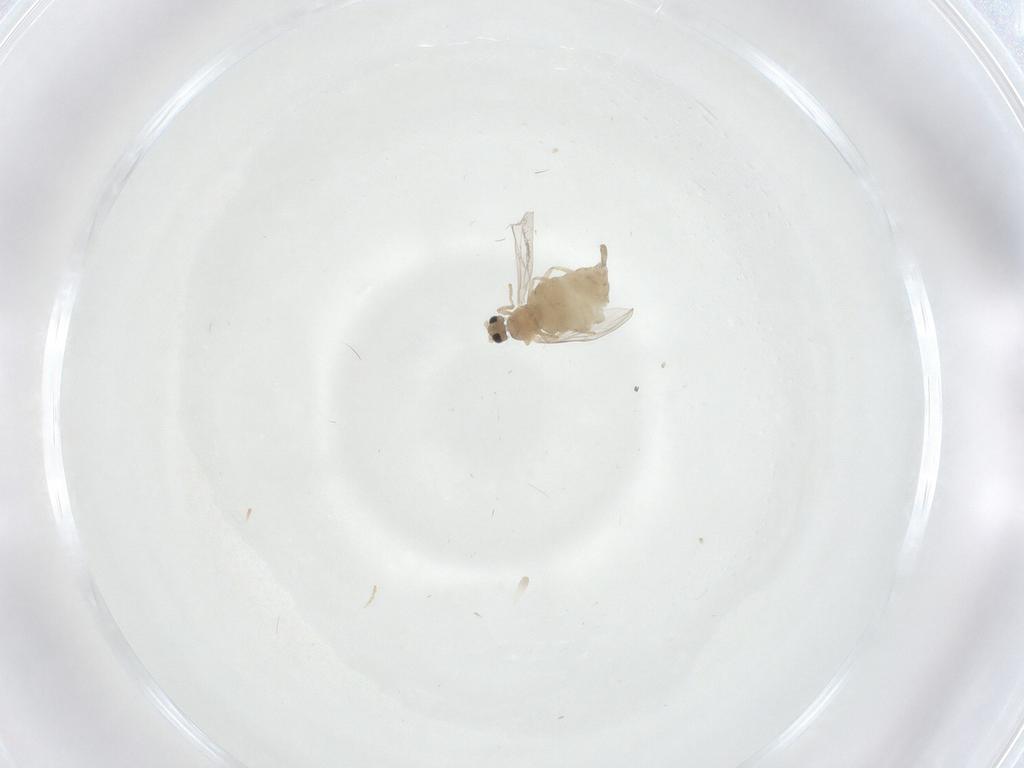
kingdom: Animalia
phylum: Arthropoda
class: Insecta
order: Diptera
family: Cecidomyiidae
